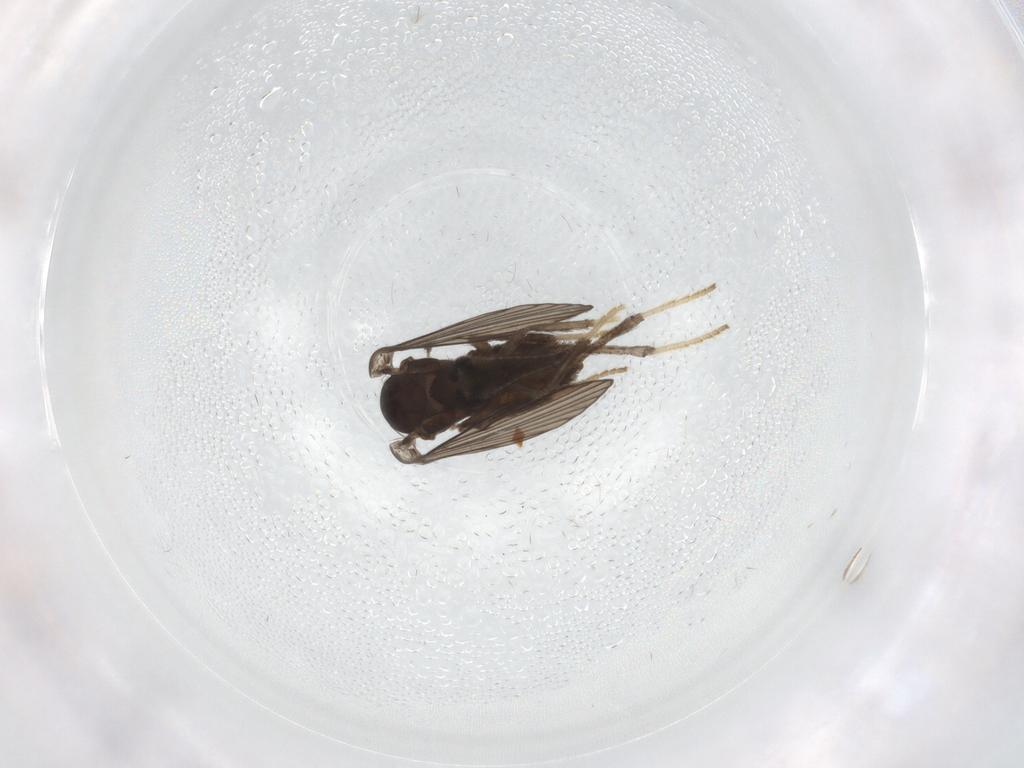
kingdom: Animalia
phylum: Arthropoda
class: Insecta
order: Diptera
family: Psychodidae
